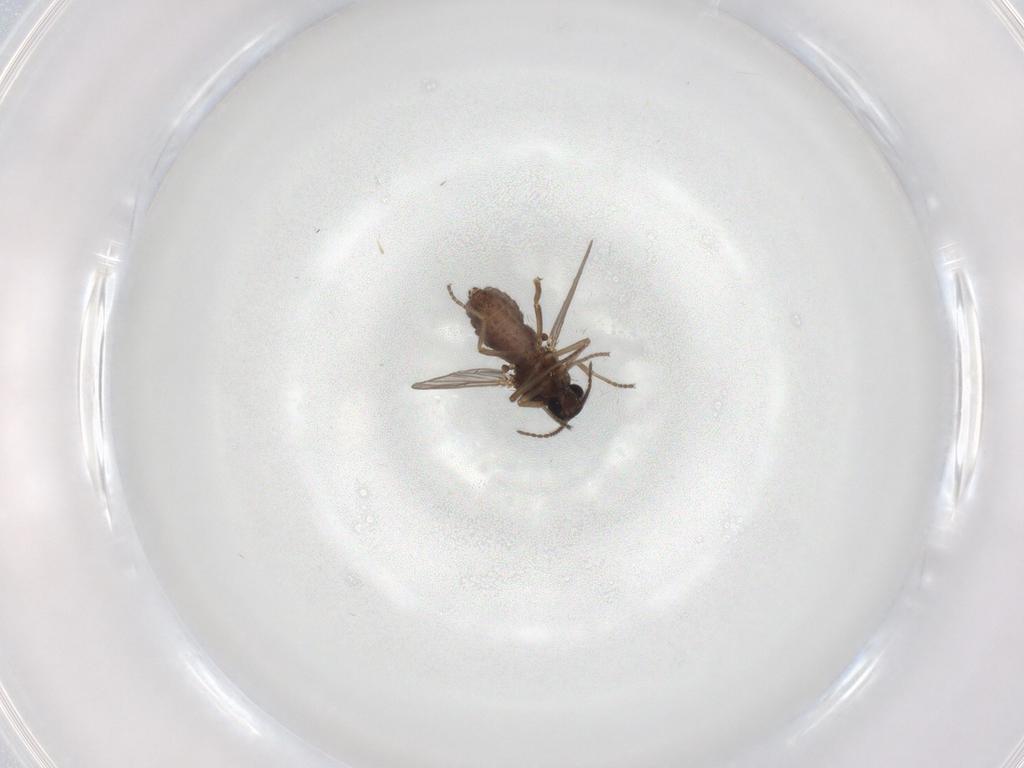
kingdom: Animalia
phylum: Arthropoda
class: Insecta
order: Diptera
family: Ceratopogonidae
